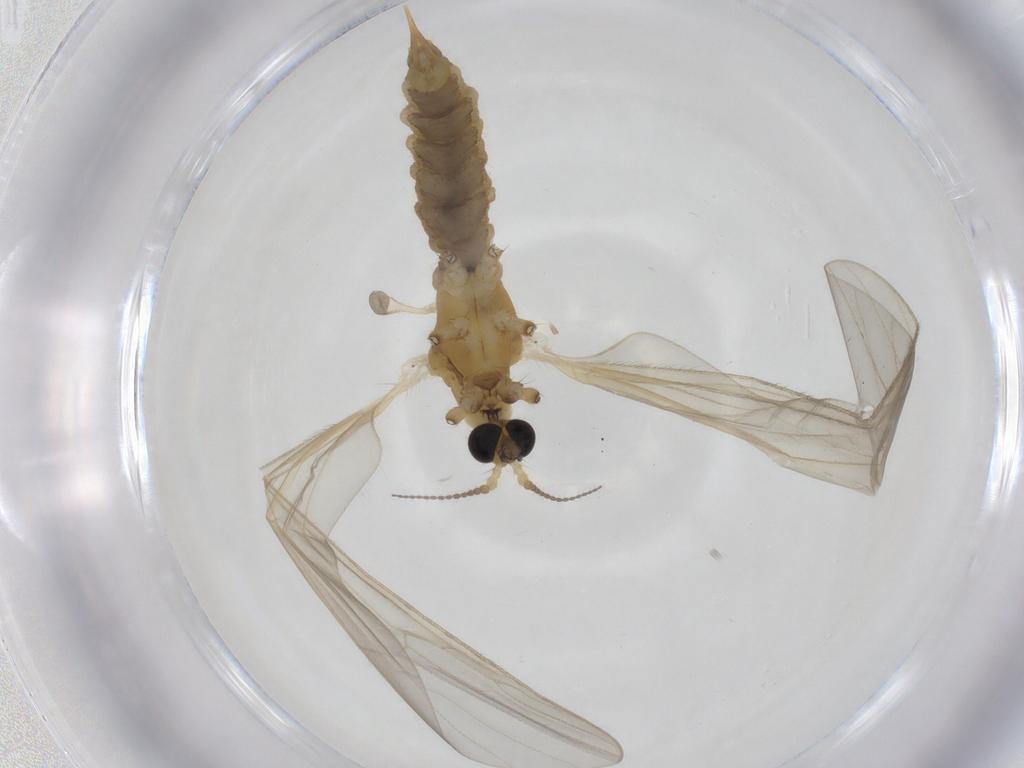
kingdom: Animalia
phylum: Arthropoda
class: Insecta
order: Diptera
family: Limoniidae
